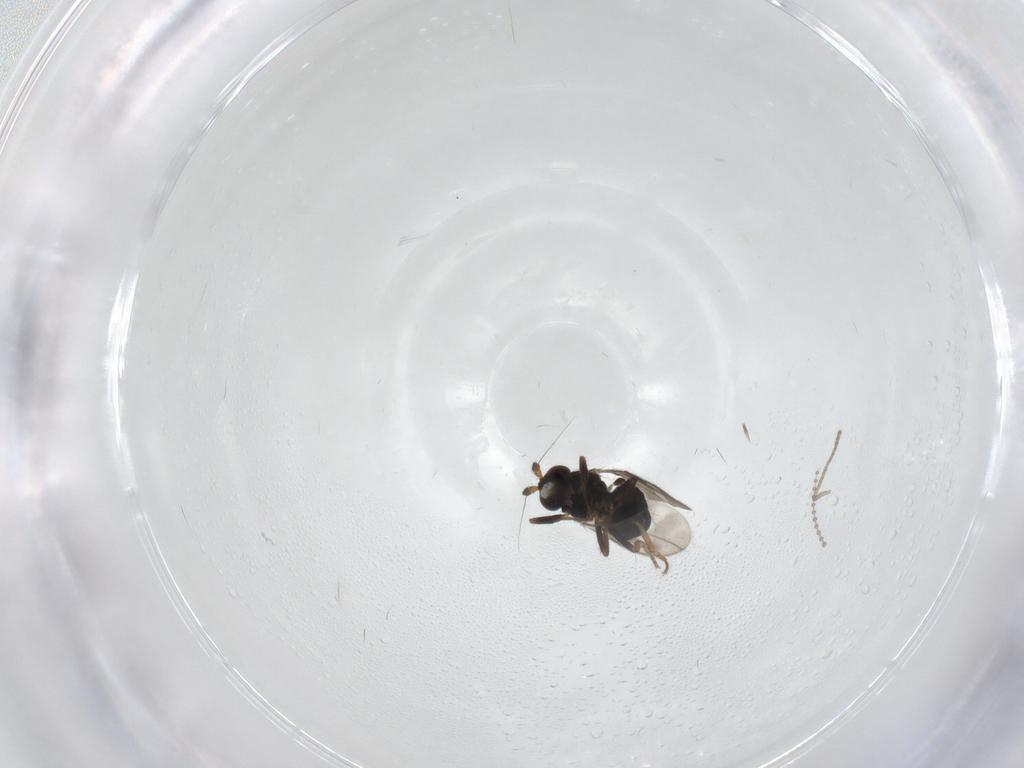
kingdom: Animalia
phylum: Arthropoda
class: Insecta
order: Diptera
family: Sphaeroceridae
